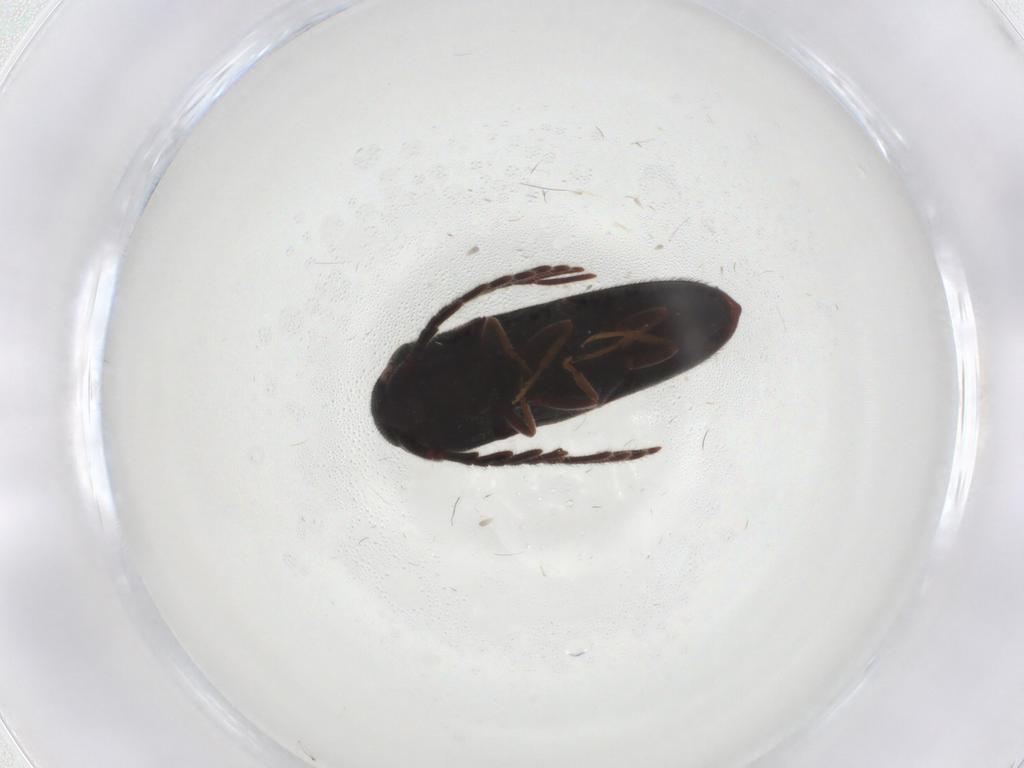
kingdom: Animalia
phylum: Arthropoda
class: Insecta
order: Coleoptera
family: Eucnemidae
